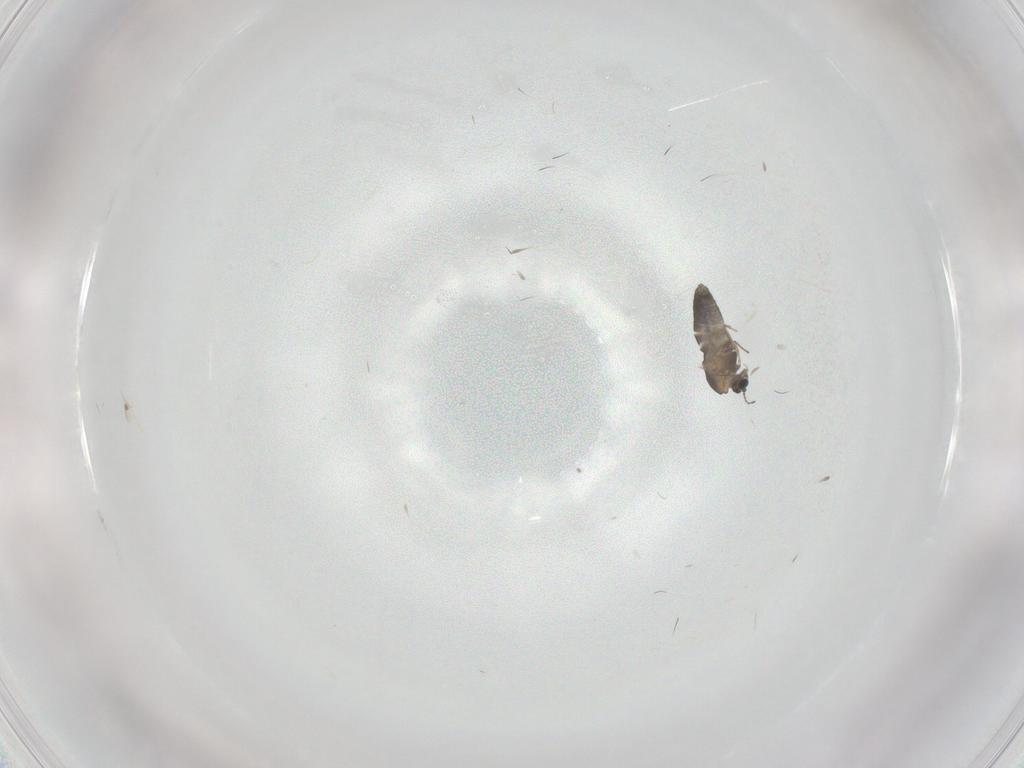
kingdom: Animalia
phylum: Arthropoda
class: Insecta
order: Diptera
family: Chironomidae
